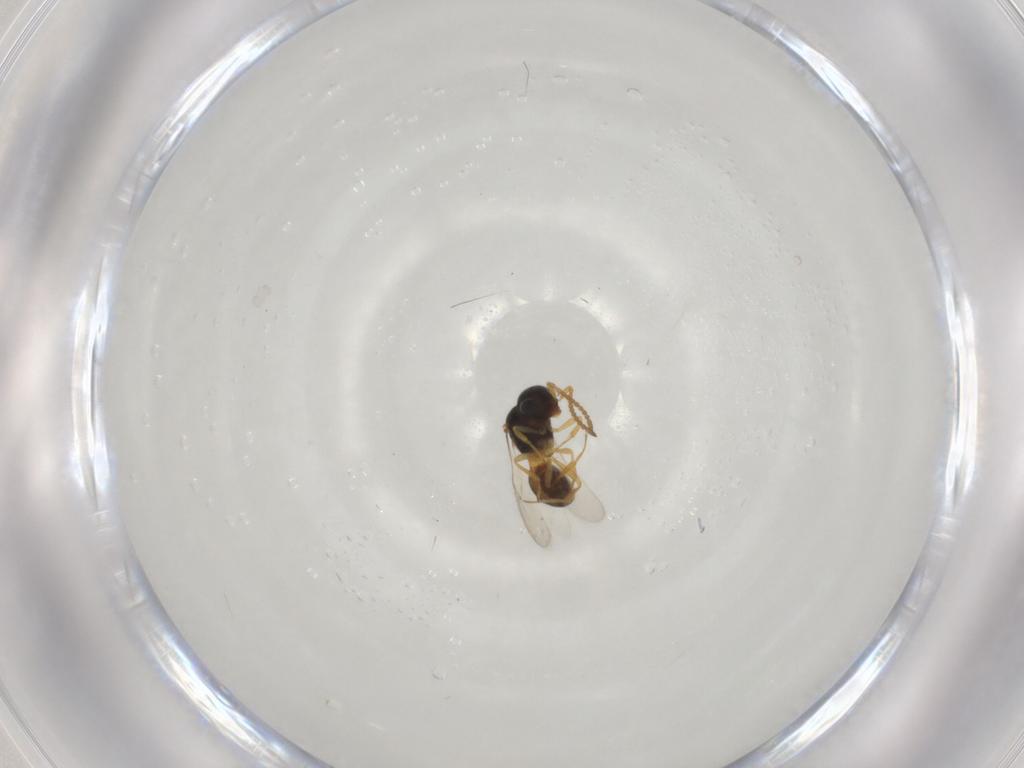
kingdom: Animalia
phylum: Arthropoda
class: Insecta
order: Hymenoptera
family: Scelionidae
